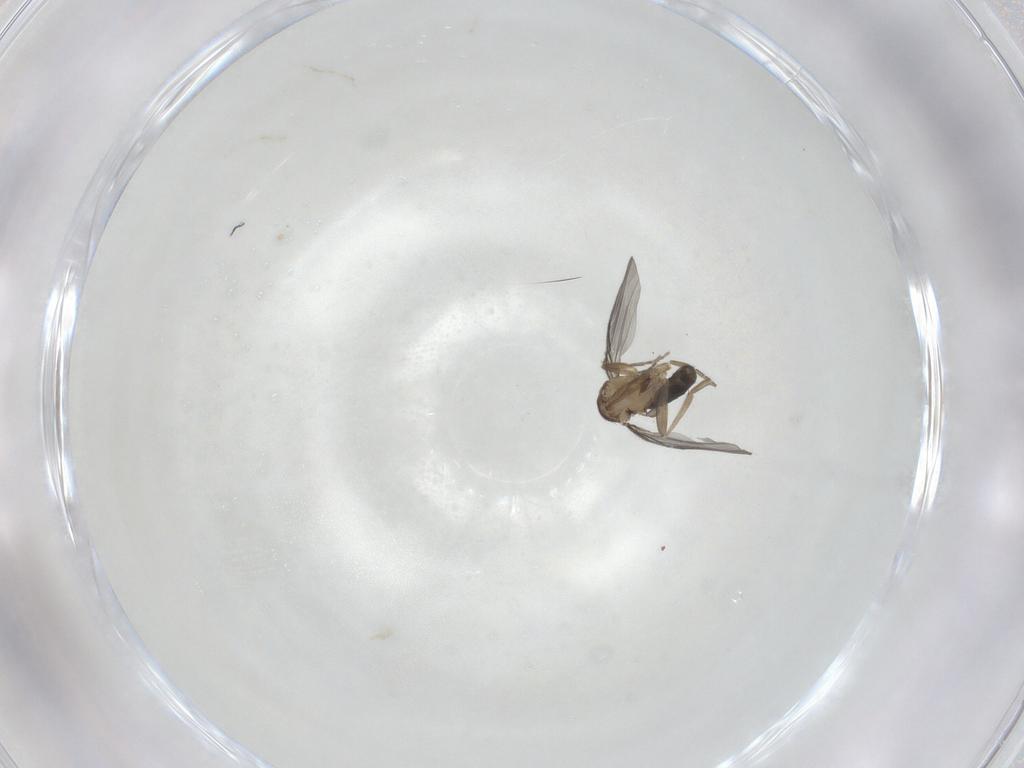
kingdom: Animalia
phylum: Arthropoda
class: Insecta
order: Diptera
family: Phoridae
